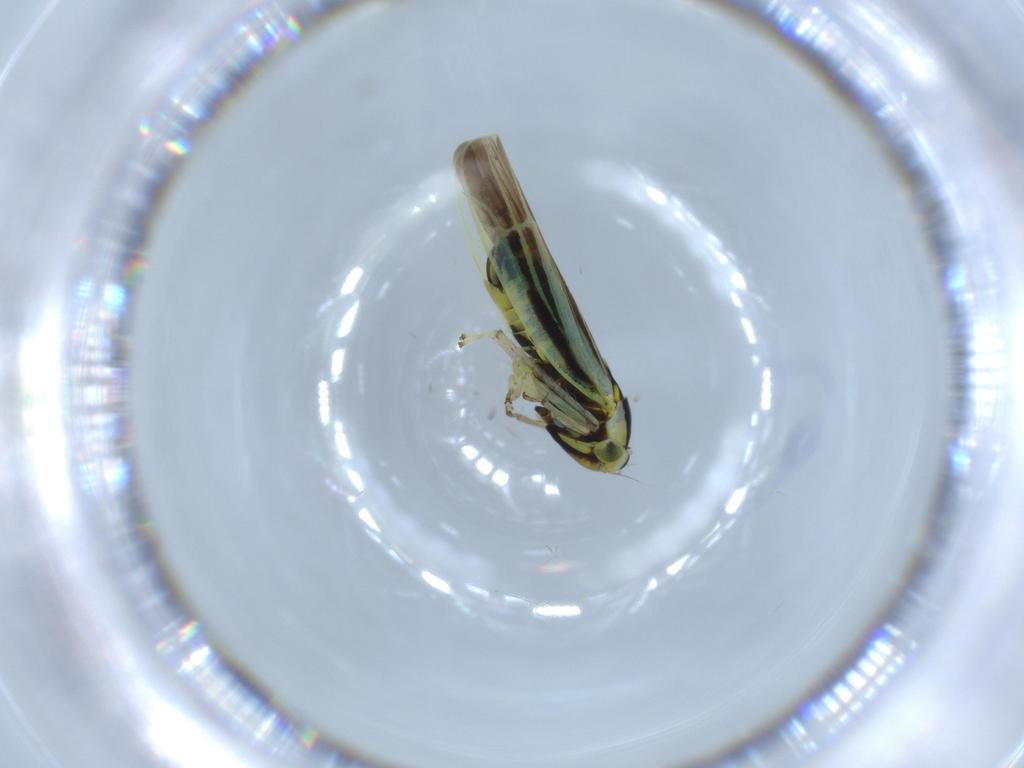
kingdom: Animalia
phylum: Arthropoda
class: Insecta
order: Hemiptera
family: Cicadellidae
